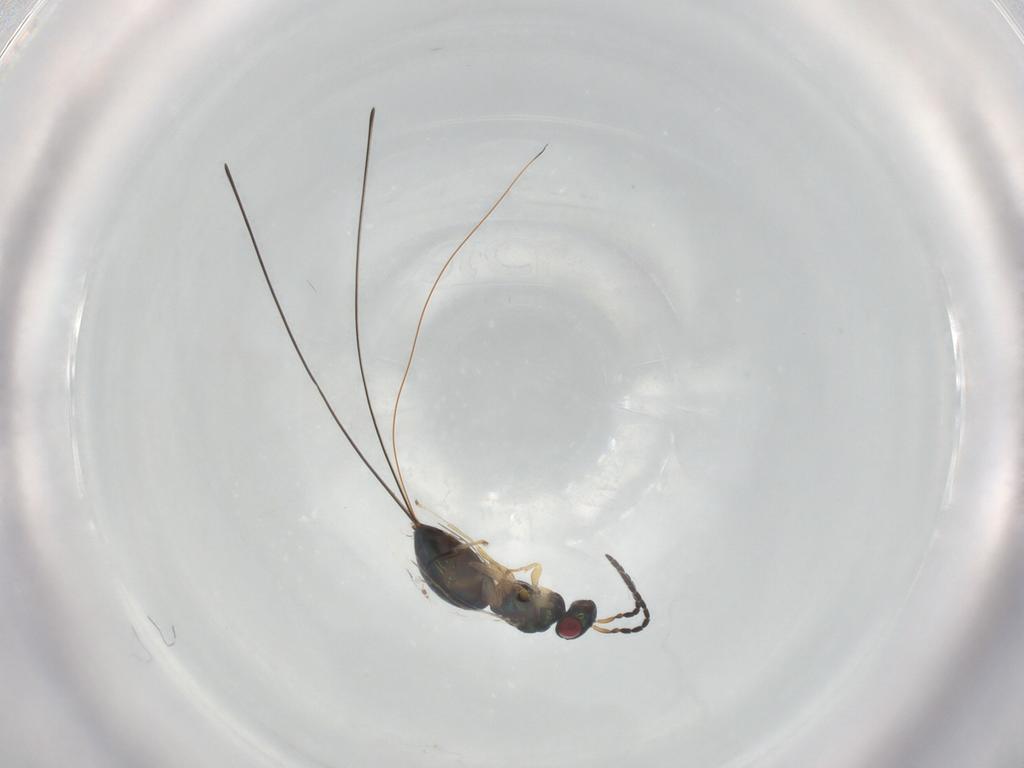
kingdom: Animalia
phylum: Arthropoda
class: Insecta
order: Hymenoptera
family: Agaonidae
